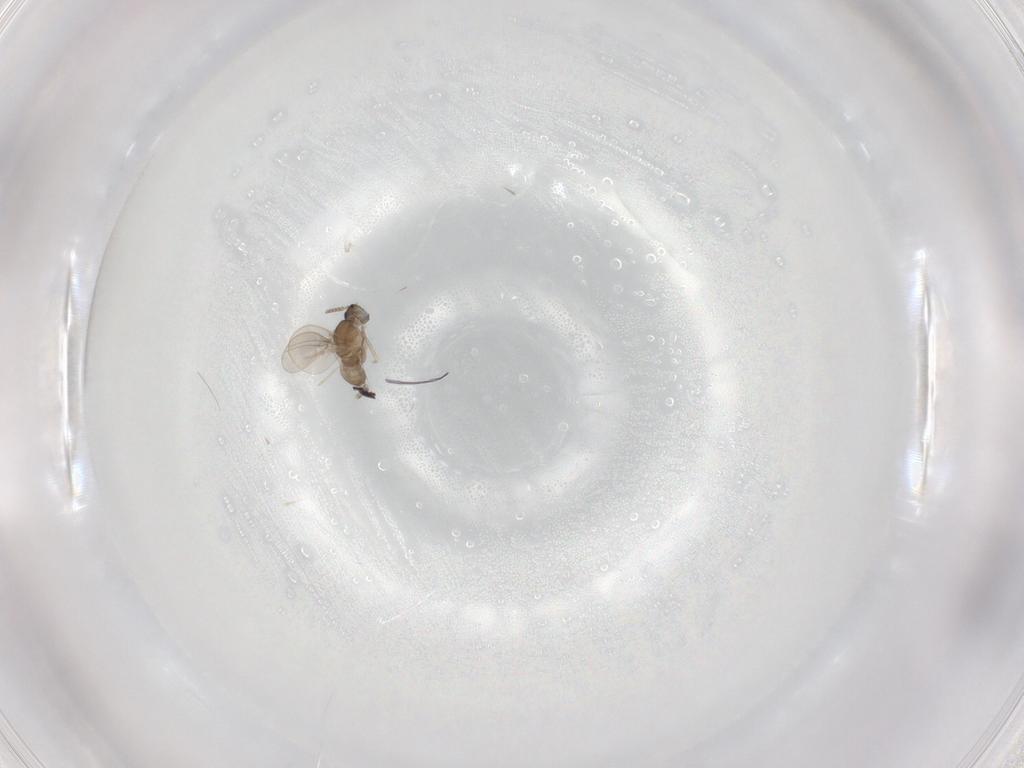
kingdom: Animalia
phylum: Arthropoda
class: Insecta
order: Diptera
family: Cecidomyiidae
